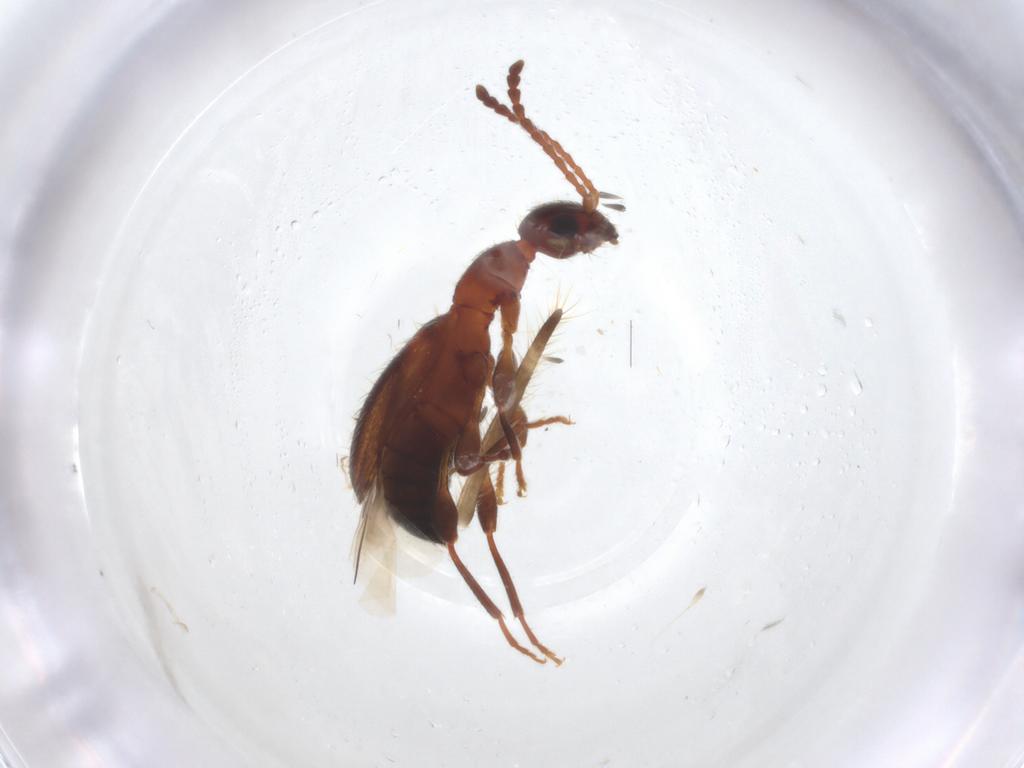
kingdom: Animalia
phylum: Arthropoda
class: Insecta
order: Coleoptera
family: Anthicidae
